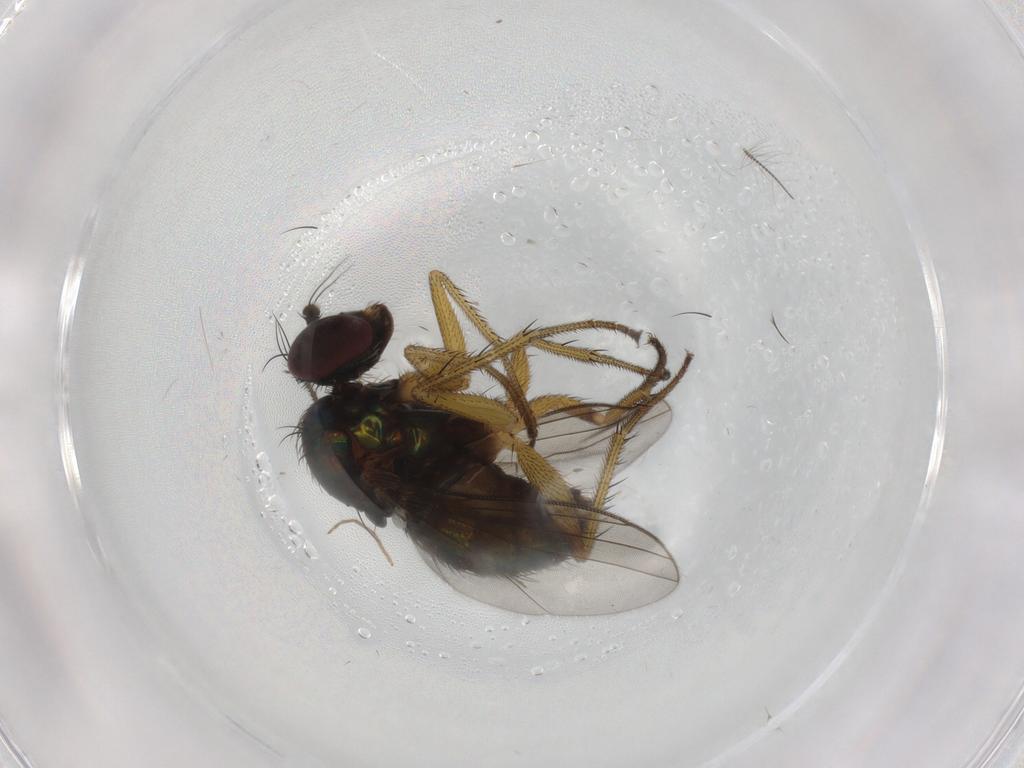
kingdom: Animalia
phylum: Arthropoda
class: Insecta
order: Diptera
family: Dolichopodidae
